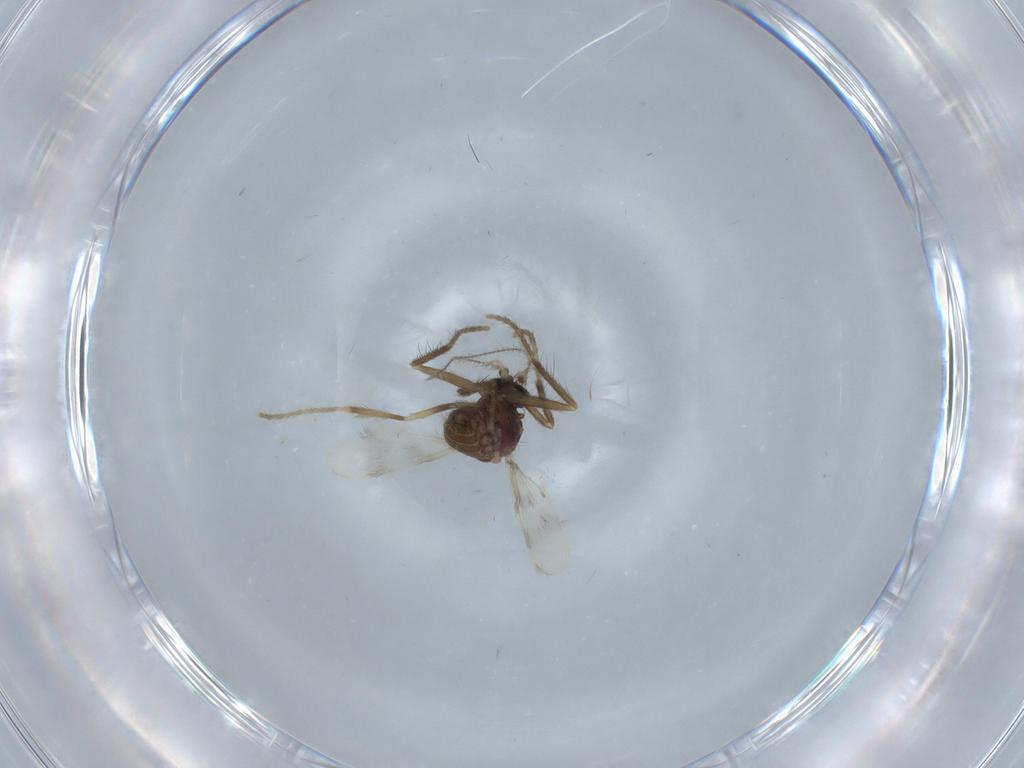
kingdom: Animalia
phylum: Arthropoda
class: Insecta
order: Diptera
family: Corethrellidae
